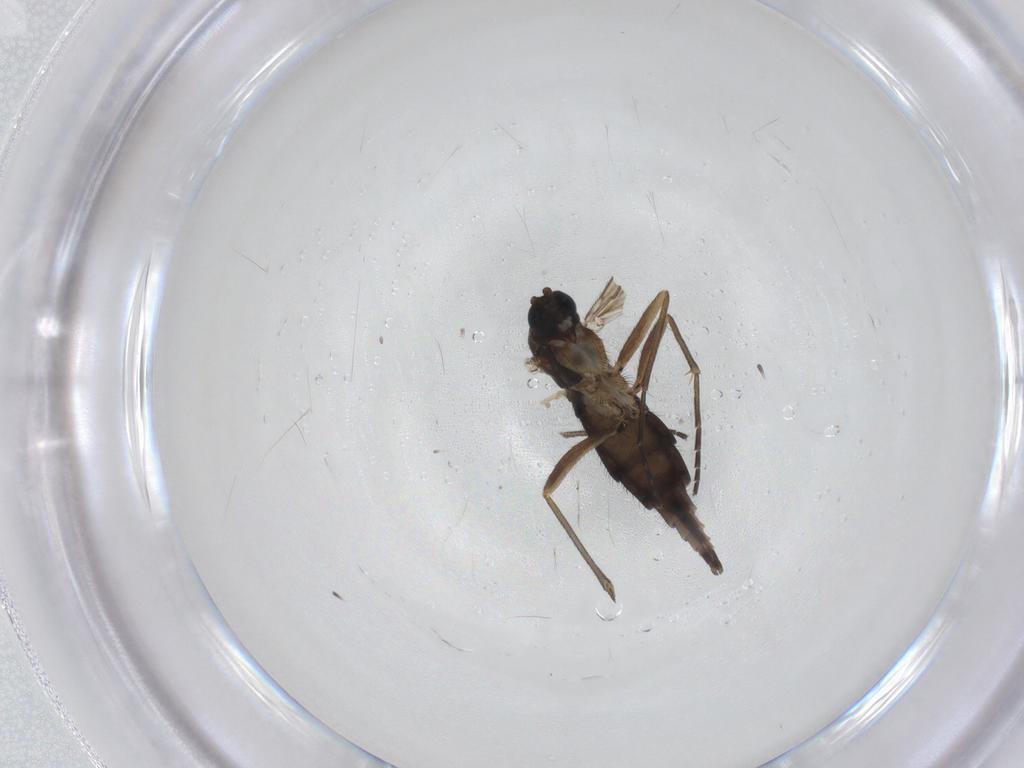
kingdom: Animalia
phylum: Arthropoda
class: Insecta
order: Diptera
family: Sciaridae
